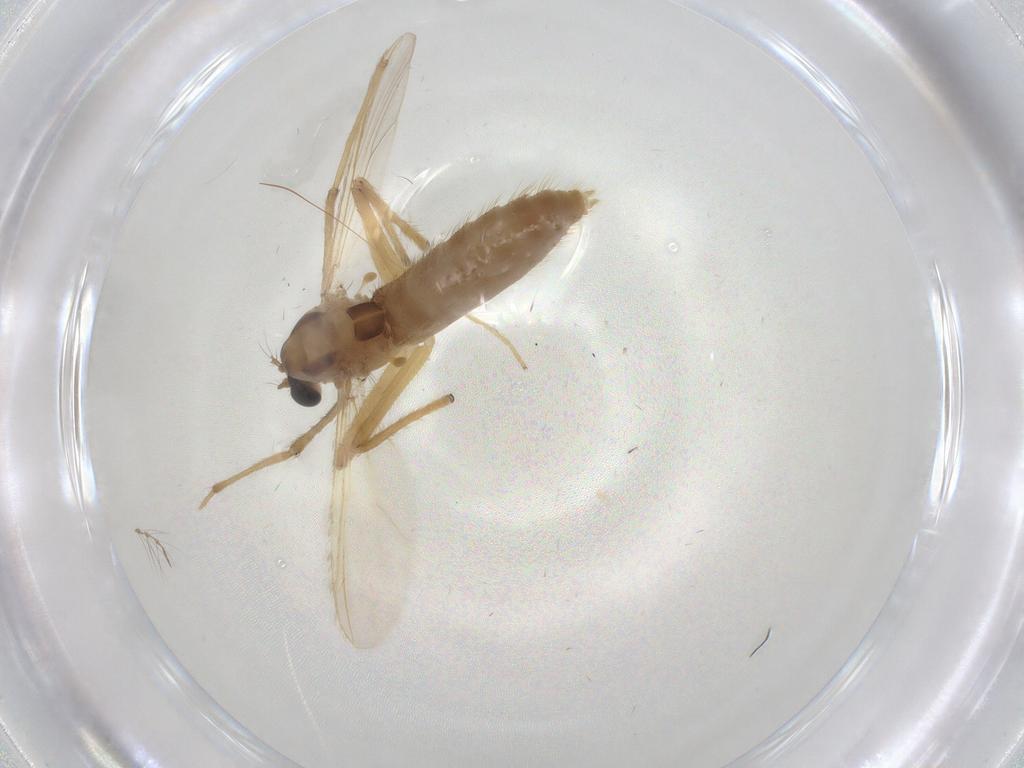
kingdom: Animalia
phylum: Arthropoda
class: Insecta
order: Diptera
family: Drosophilidae
